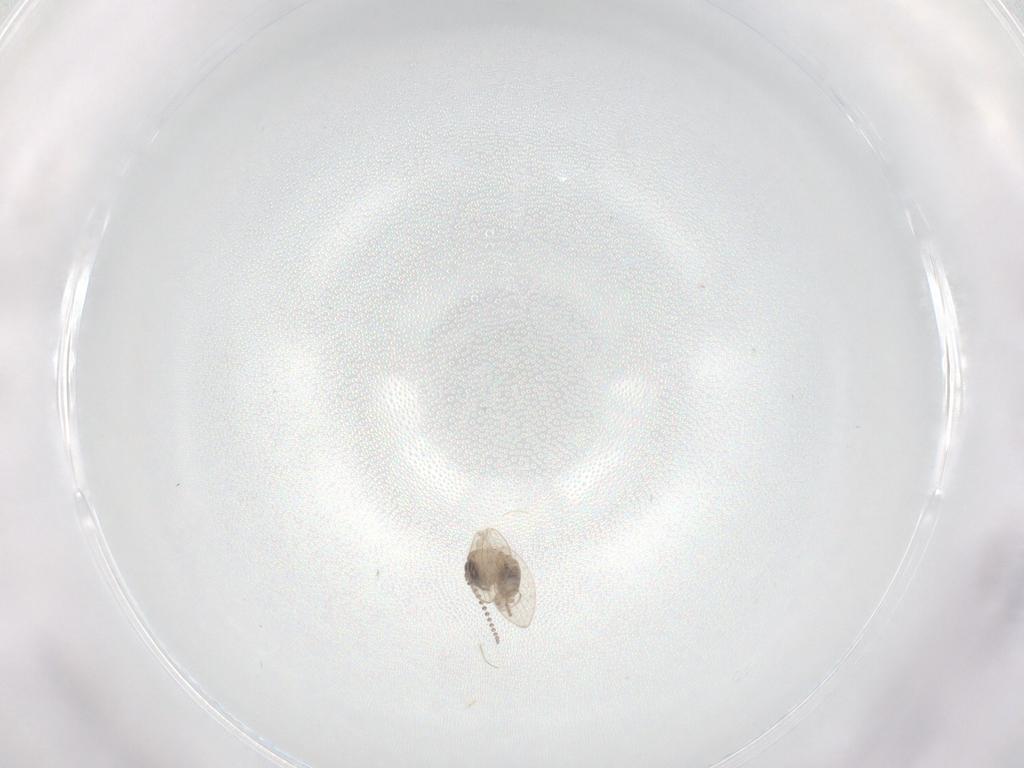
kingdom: Animalia
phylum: Arthropoda
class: Insecta
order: Diptera
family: Psychodidae
